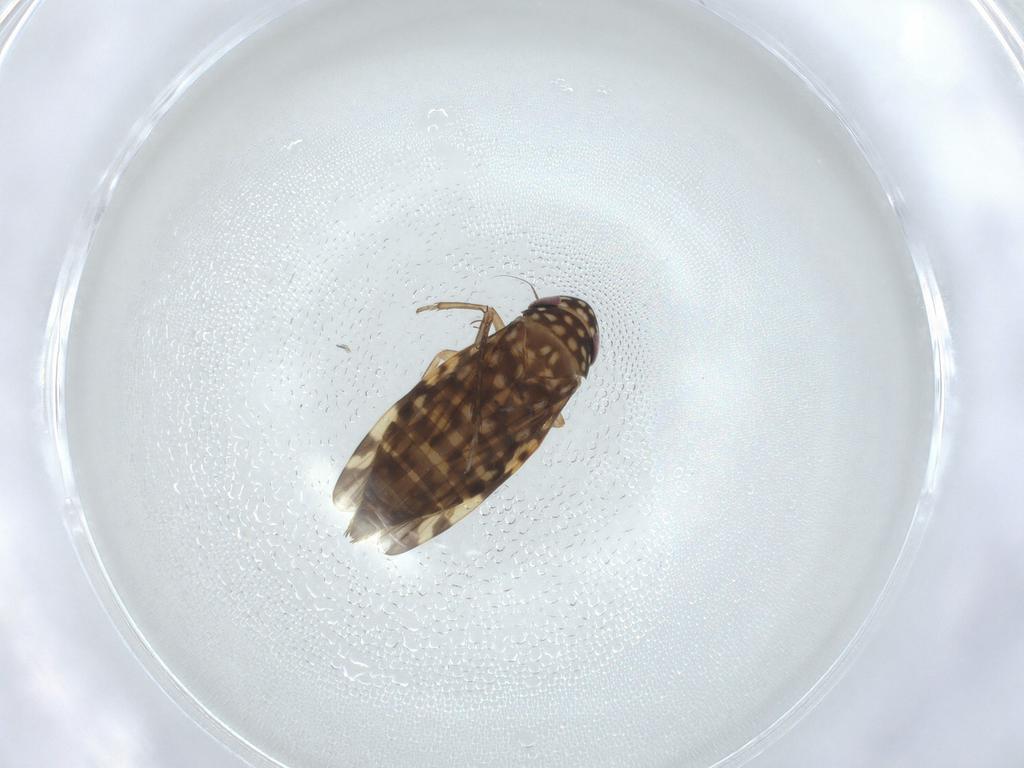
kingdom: Animalia
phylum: Arthropoda
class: Insecta
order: Hemiptera
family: Cicadellidae
